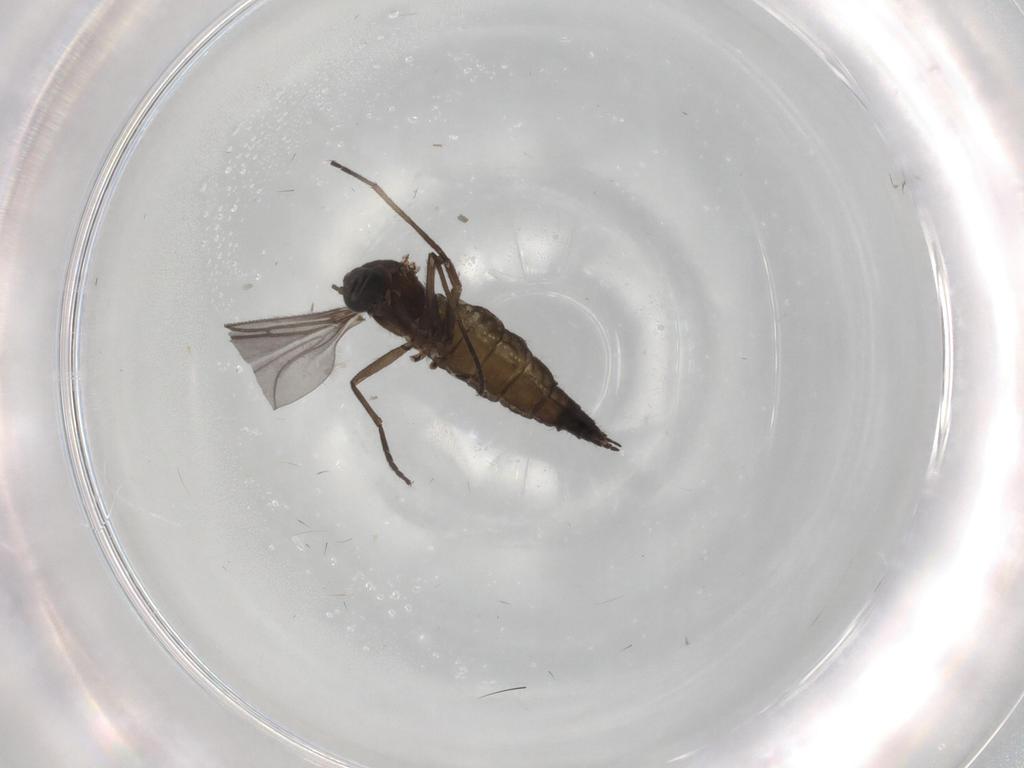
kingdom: Animalia
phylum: Arthropoda
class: Insecta
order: Diptera
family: Sciaridae
